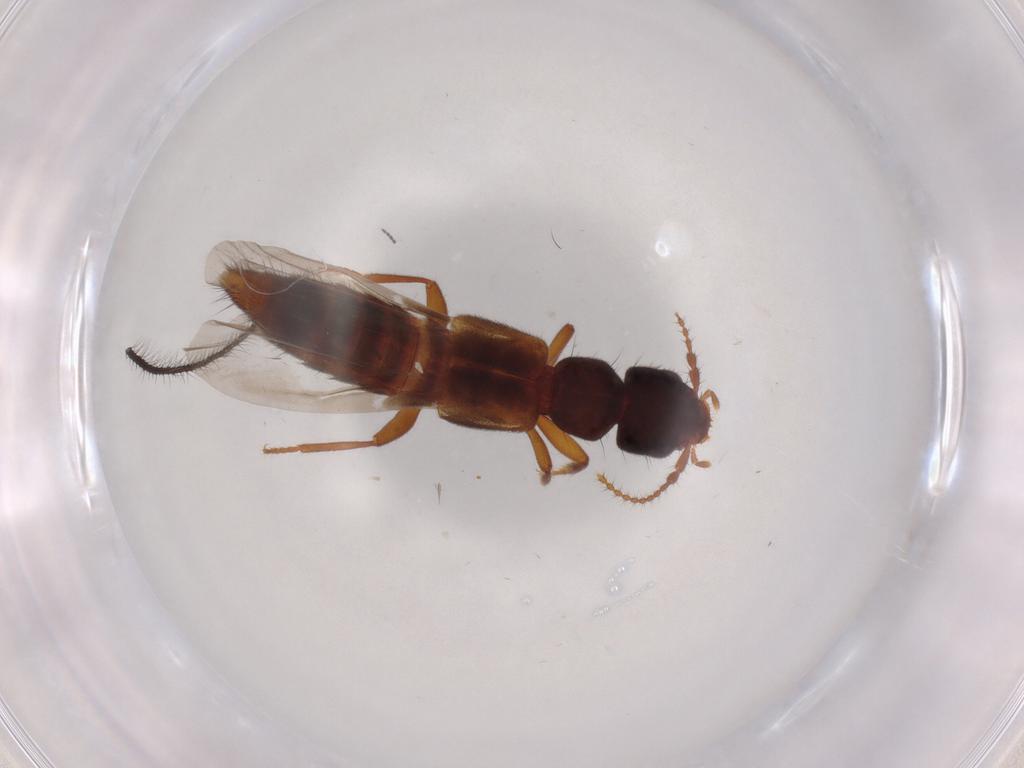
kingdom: Animalia
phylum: Arthropoda
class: Insecta
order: Coleoptera
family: Staphylinidae
